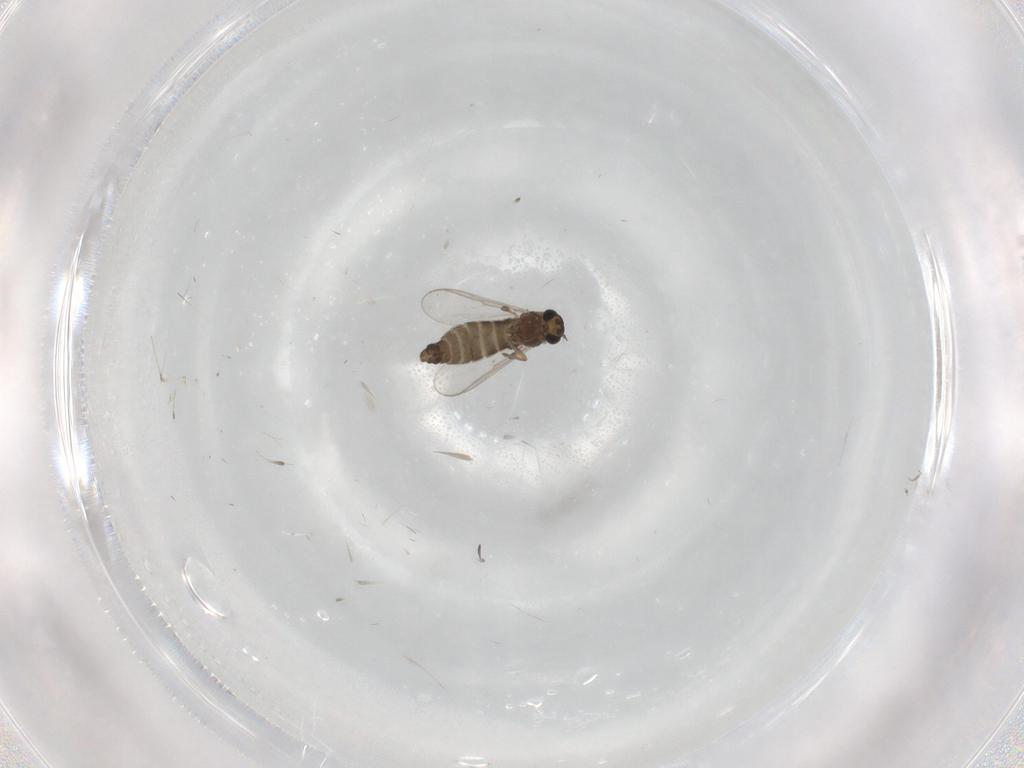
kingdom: Animalia
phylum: Arthropoda
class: Insecta
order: Diptera
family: Chironomidae
